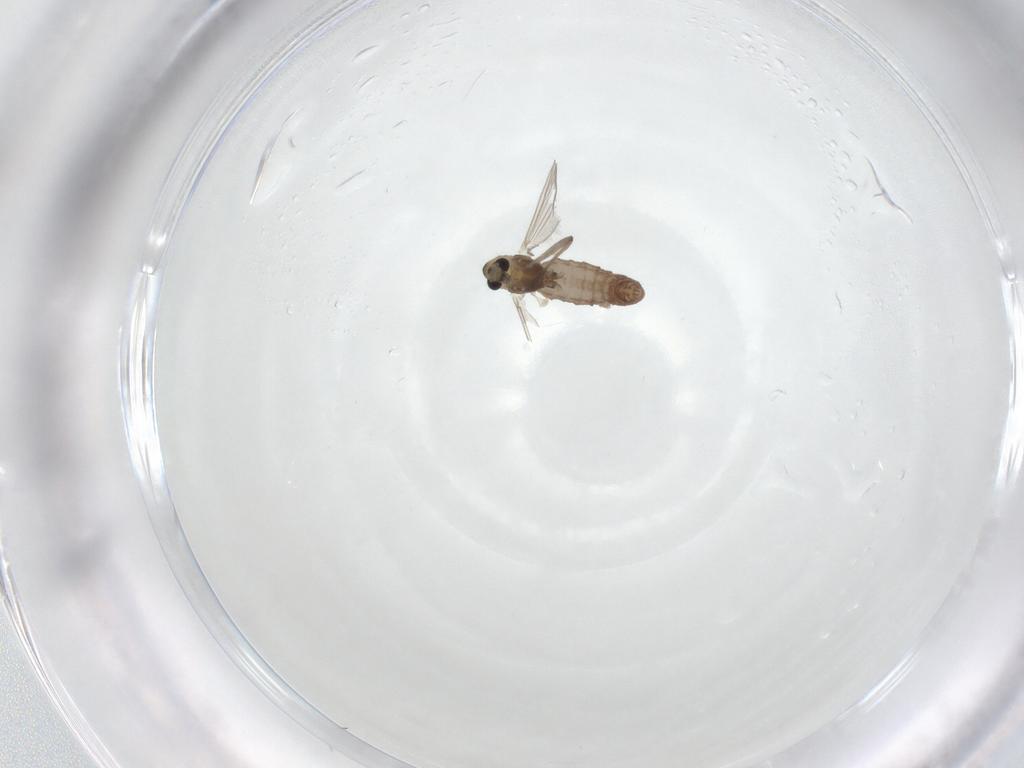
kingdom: Animalia
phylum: Arthropoda
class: Insecta
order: Diptera
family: Chironomidae
